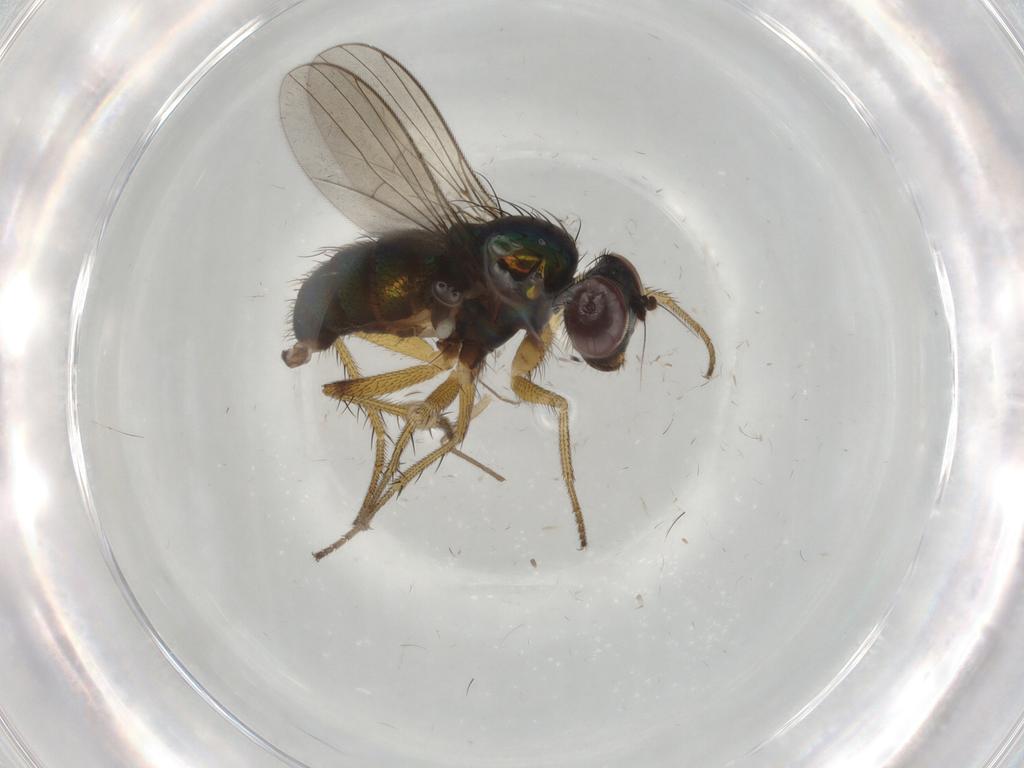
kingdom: Animalia
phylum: Arthropoda
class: Insecta
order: Diptera
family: Dolichopodidae
